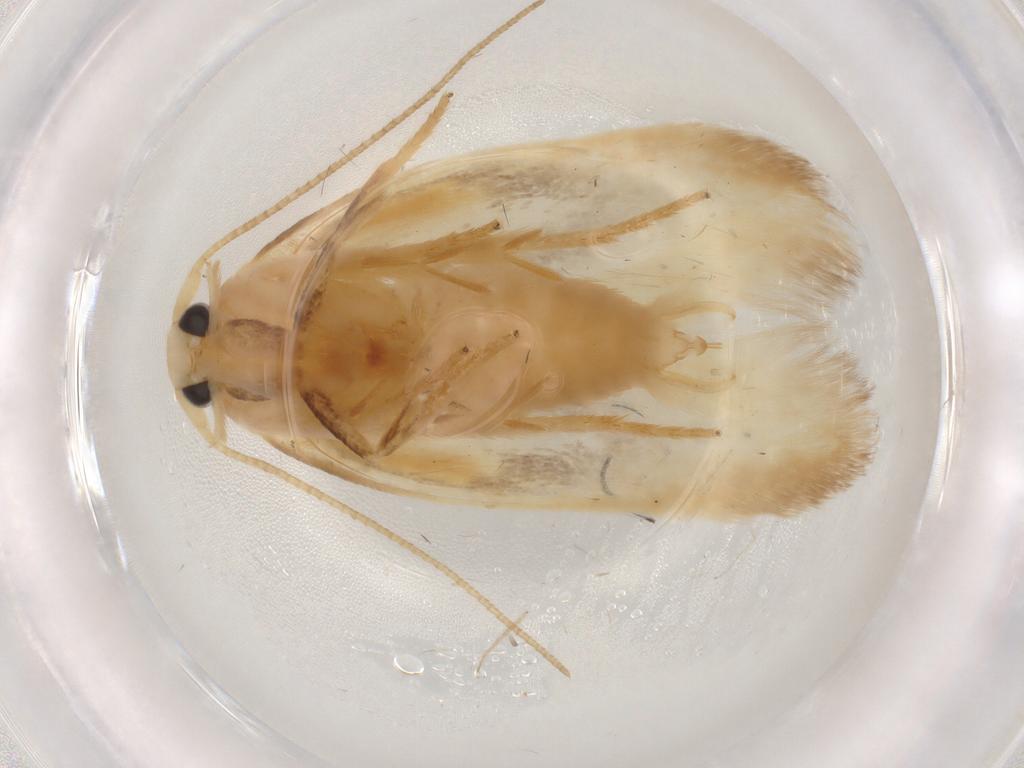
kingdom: Animalia
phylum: Arthropoda
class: Insecta
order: Lepidoptera
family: Geometridae
